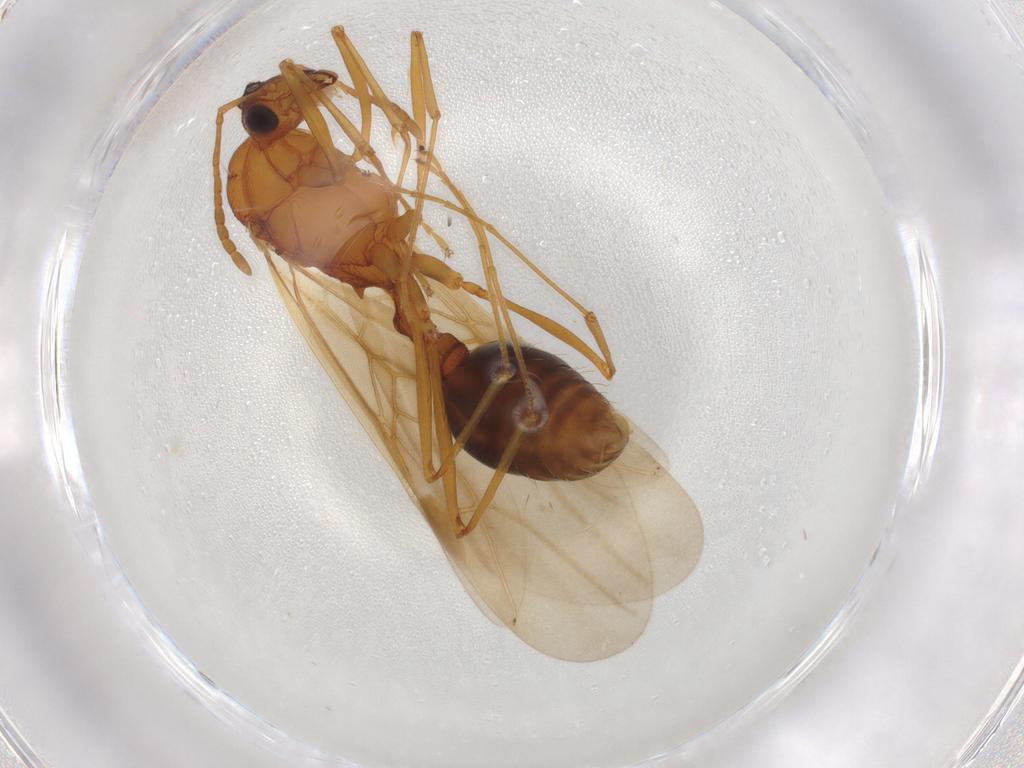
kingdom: Animalia
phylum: Arthropoda
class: Insecta
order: Hymenoptera
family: Formicidae
